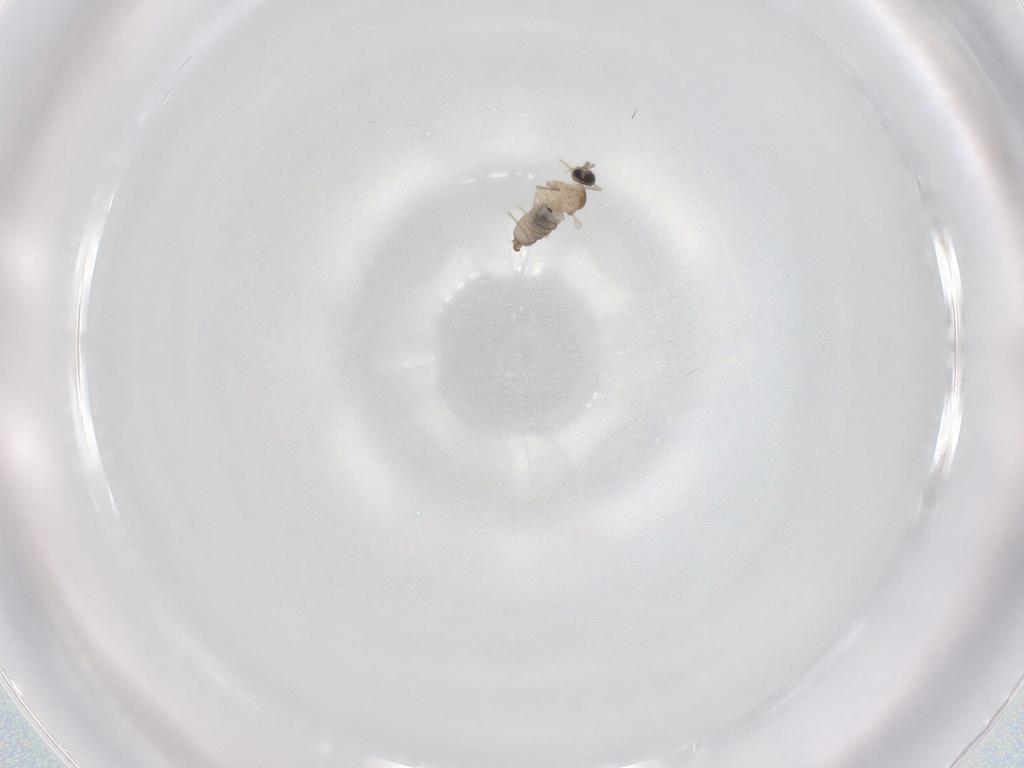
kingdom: Animalia
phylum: Arthropoda
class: Insecta
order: Diptera
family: Cecidomyiidae
